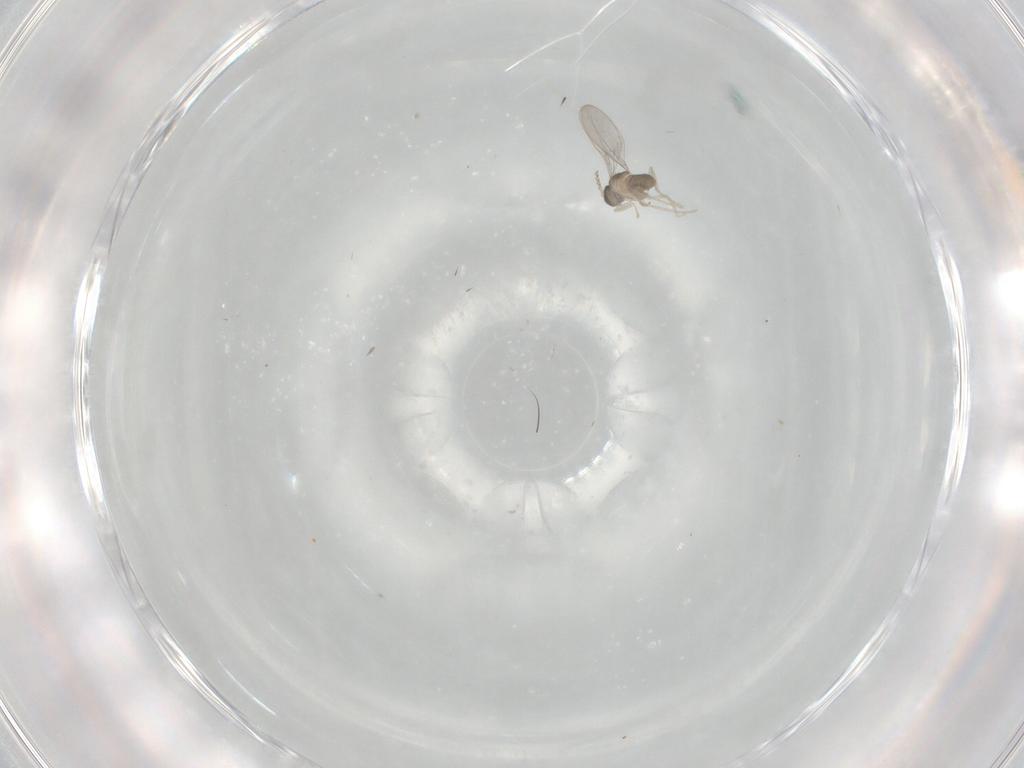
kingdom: Animalia
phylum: Arthropoda
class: Insecta
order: Diptera
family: Cecidomyiidae
